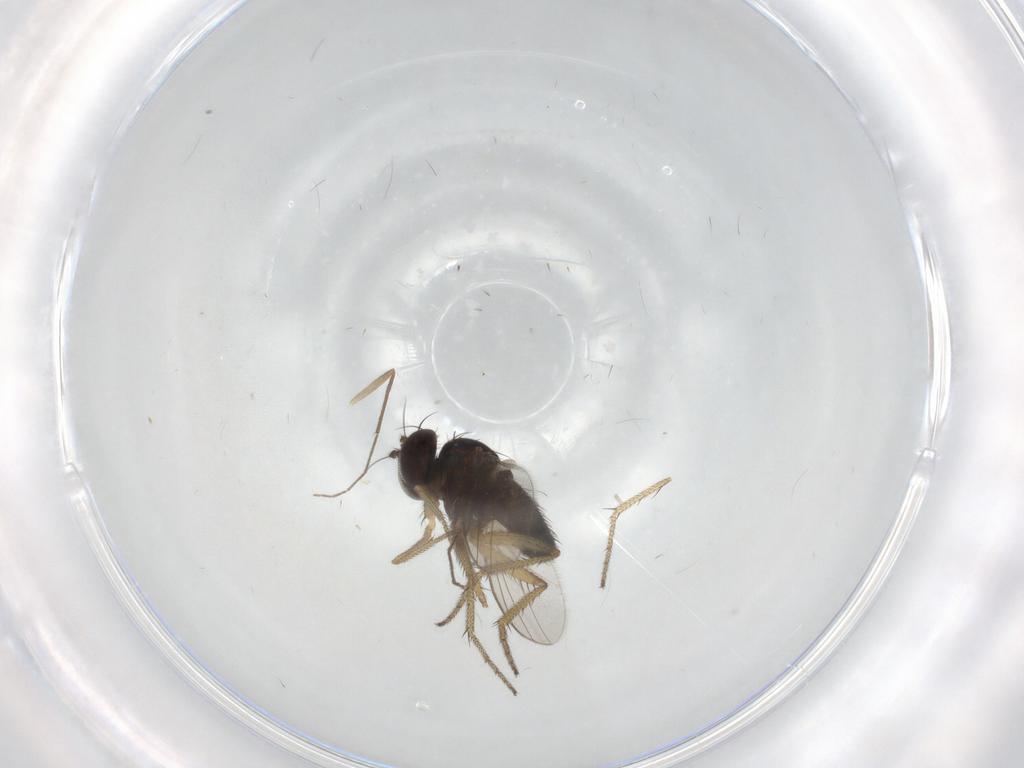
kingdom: Animalia
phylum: Arthropoda
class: Insecta
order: Diptera
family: Chironomidae
